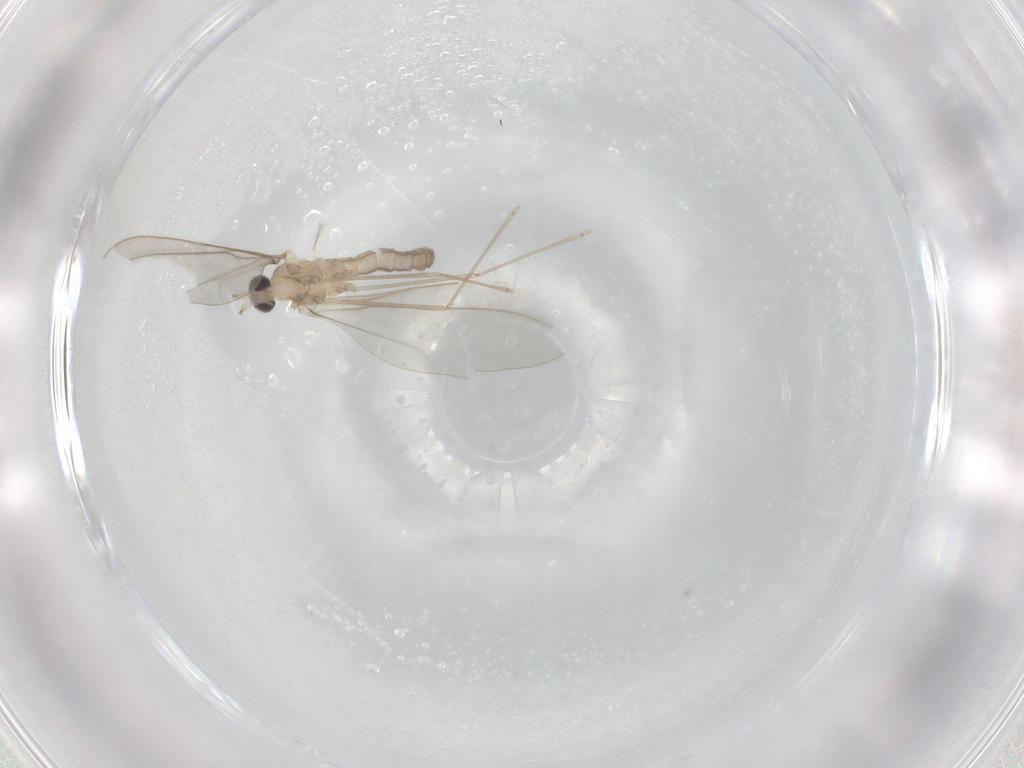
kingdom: Animalia
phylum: Arthropoda
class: Insecta
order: Diptera
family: Cecidomyiidae
